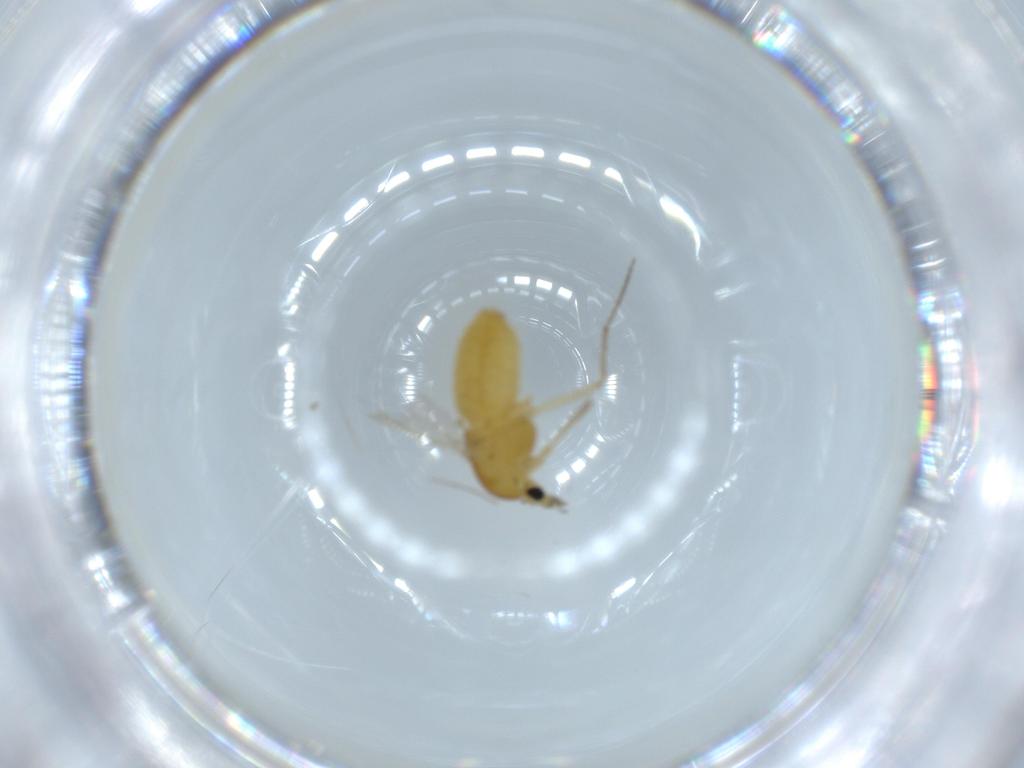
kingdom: Animalia
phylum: Arthropoda
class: Insecta
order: Diptera
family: Chironomidae
